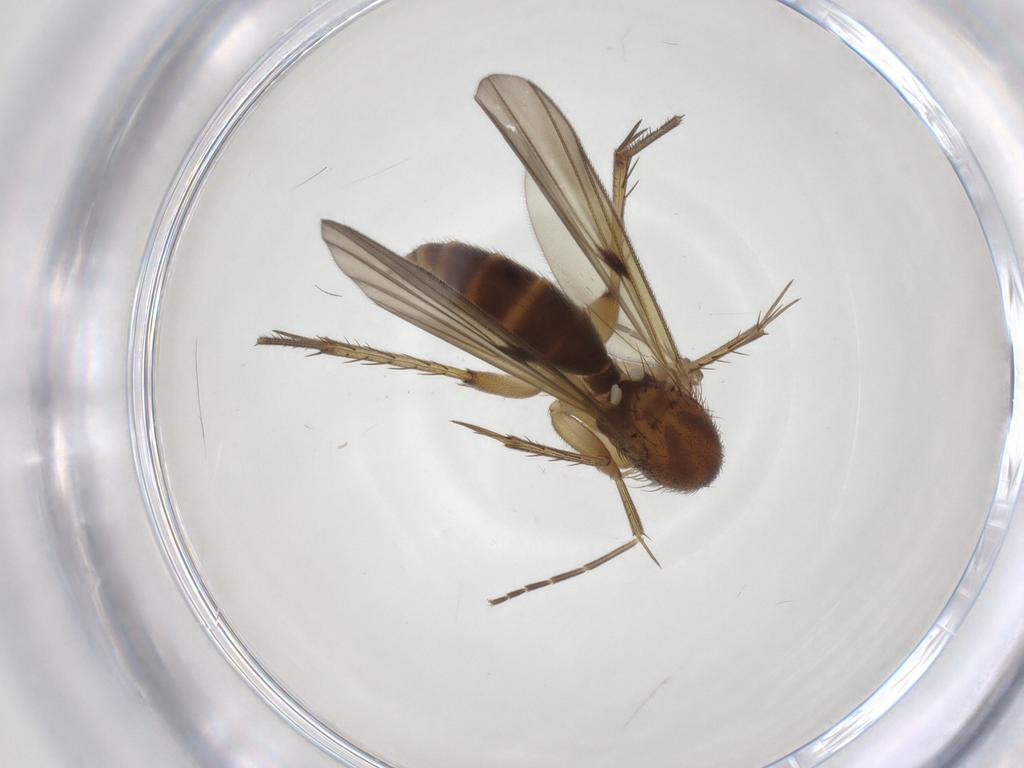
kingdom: Animalia
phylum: Arthropoda
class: Insecta
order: Diptera
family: Mycetophilidae
